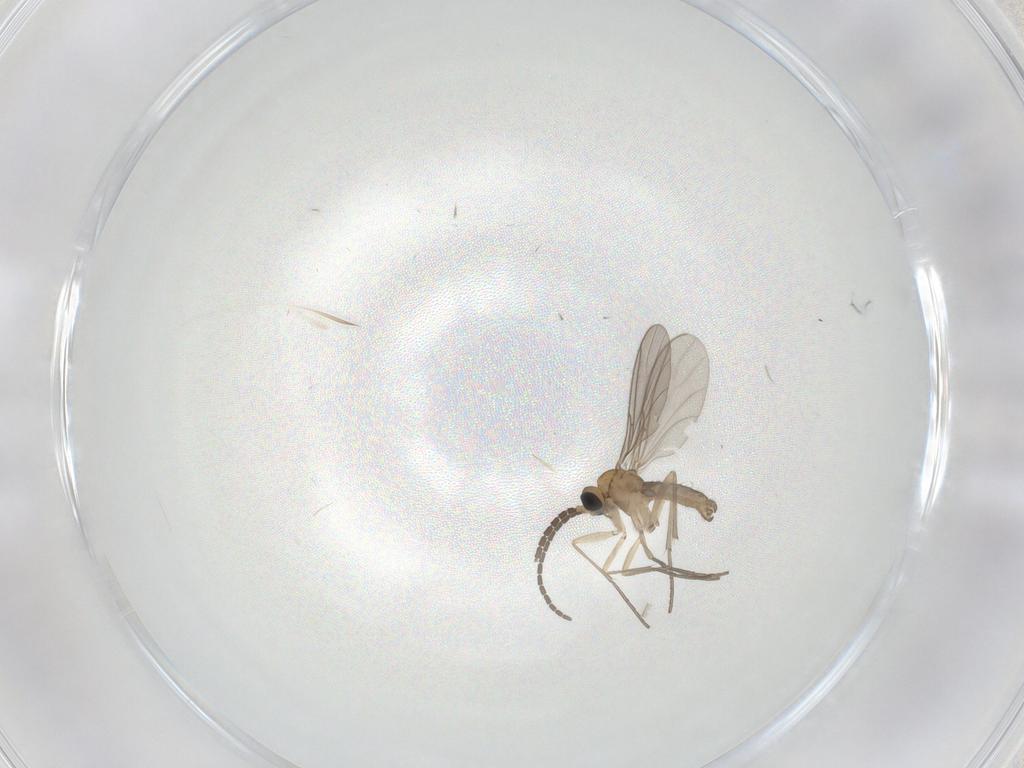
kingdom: Animalia
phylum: Arthropoda
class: Insecta
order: Diptera
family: Sciaridae
